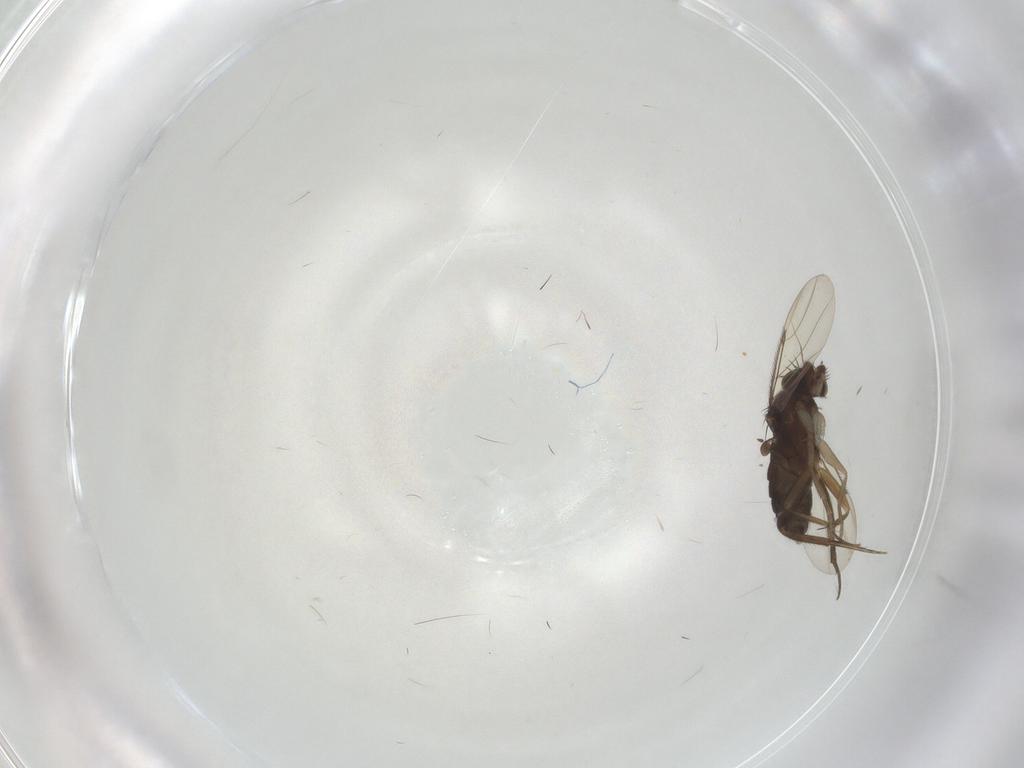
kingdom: Animalia
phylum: Arthropoda
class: Insecta
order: Diptera
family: Phoridae
